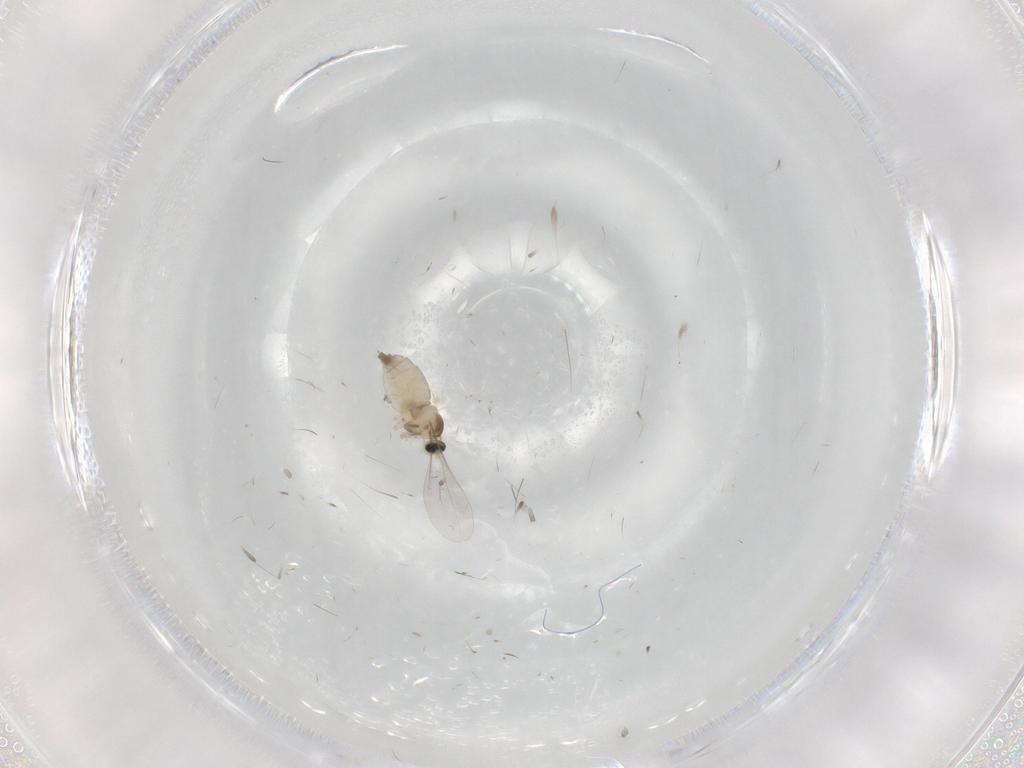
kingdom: Animalia
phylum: Arthropoda
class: Insecta
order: Diptera
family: Cecidomyiidae
